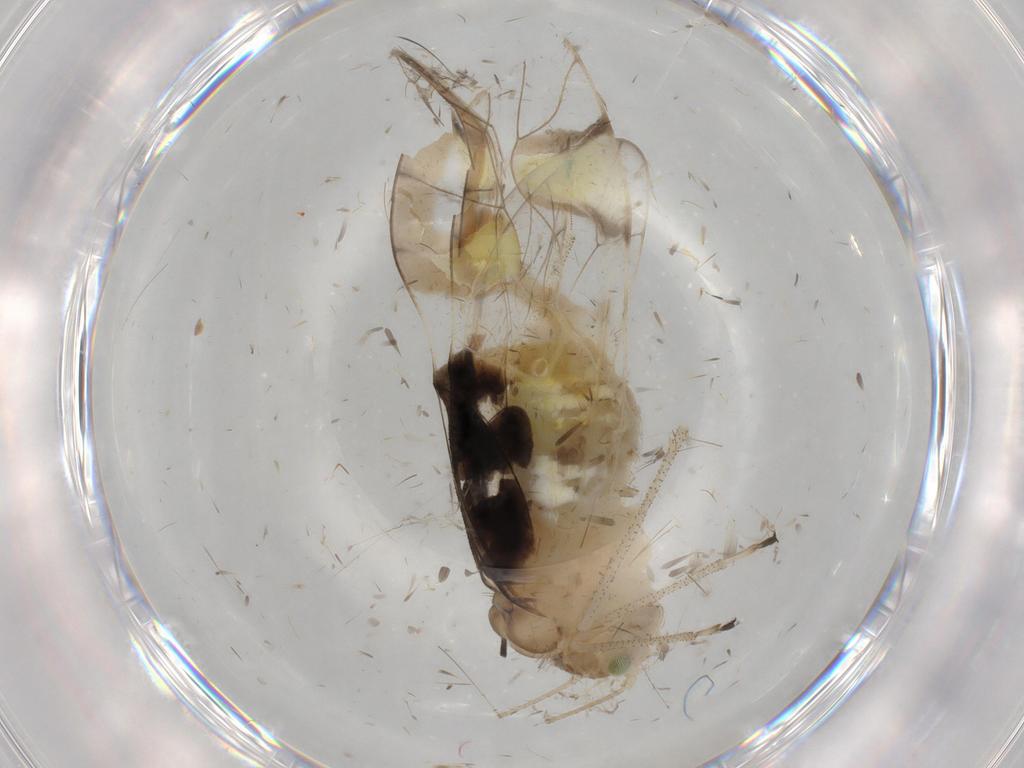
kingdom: Animalia
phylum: Arthropoda
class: Insecta
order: Psocodea
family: Amphipsocidae
